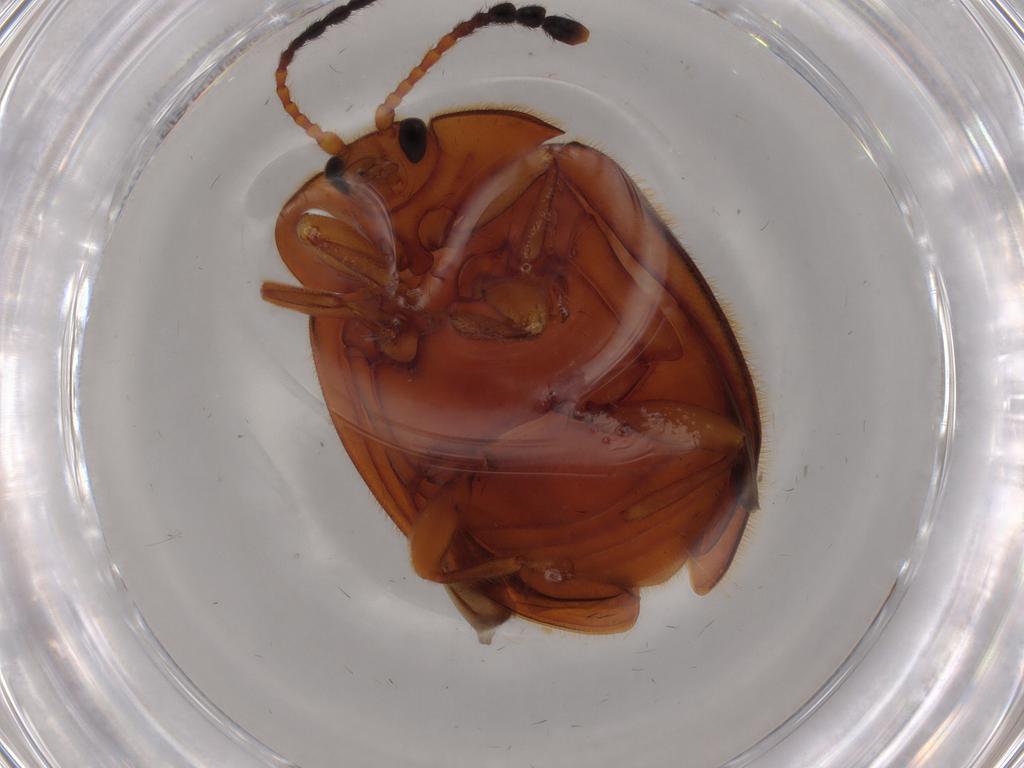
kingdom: Animalia
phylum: Arthropoda
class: Insecta
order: Coleoptera
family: Endomychidae
